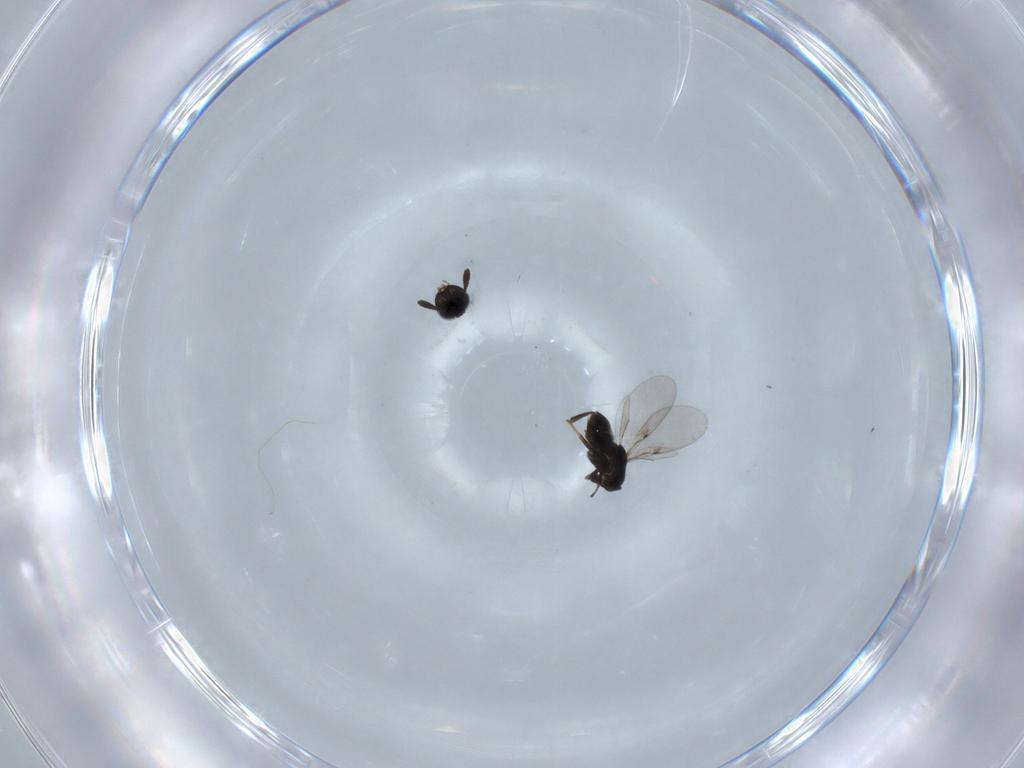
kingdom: Animalia
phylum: Arthropoda
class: Insecta
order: Hymenoptera
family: Encyrtidae
